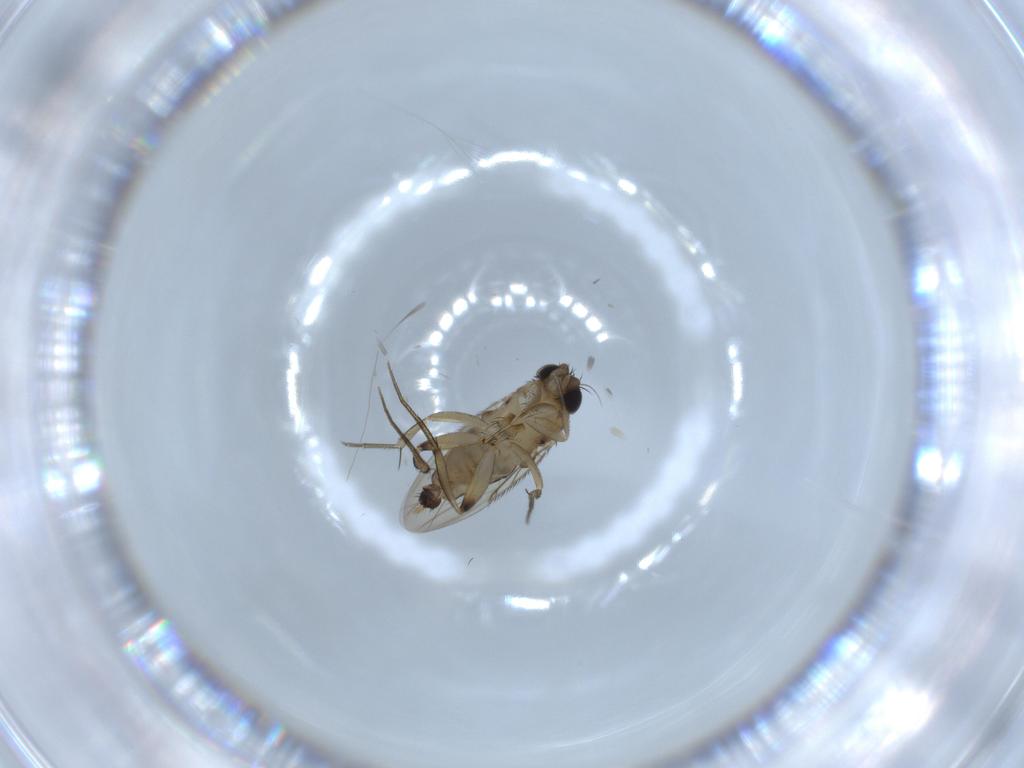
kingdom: Animalia
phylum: Arthropoda
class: Insecta
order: Diptera
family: Phoridae
